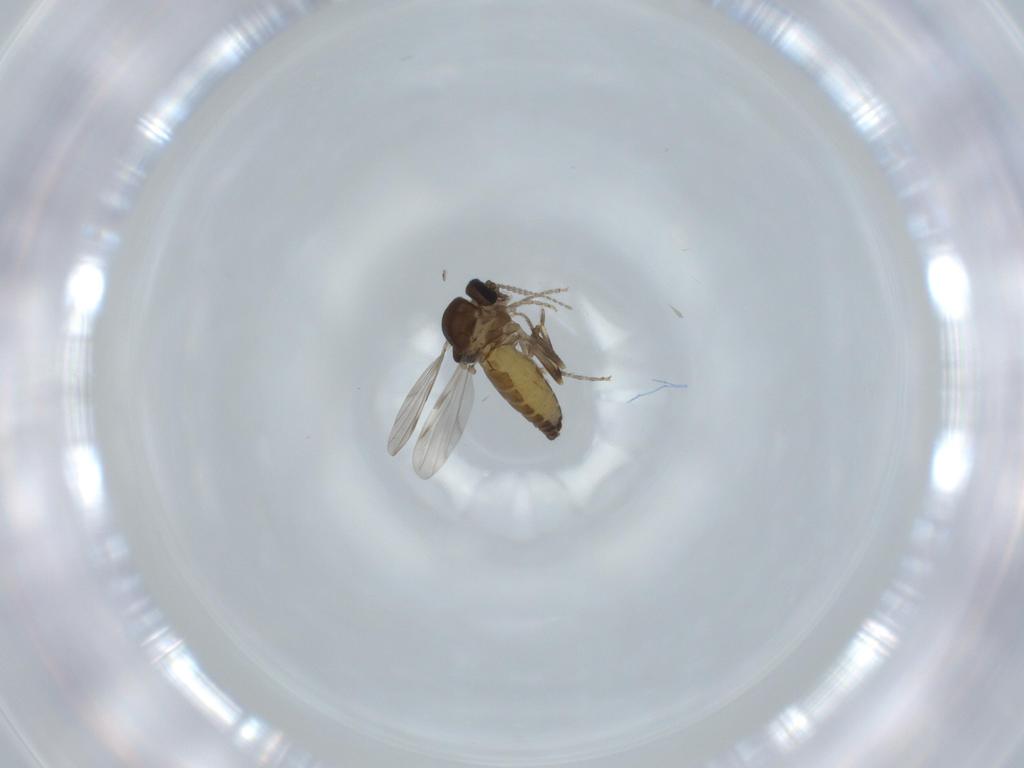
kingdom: Animalia
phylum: Arthropoda
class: Insecta
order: Diptera
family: Ceratopogonidae
